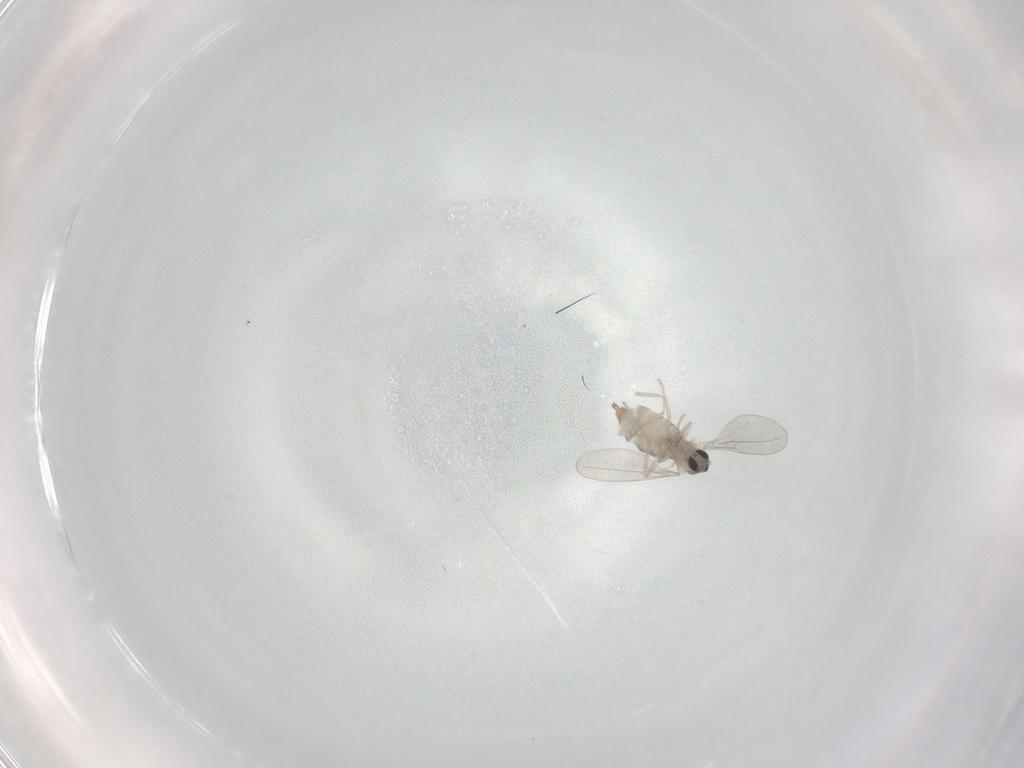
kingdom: Animalia
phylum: Arthropoda
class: Insecta
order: Diptera
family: Cecidomyiidae
